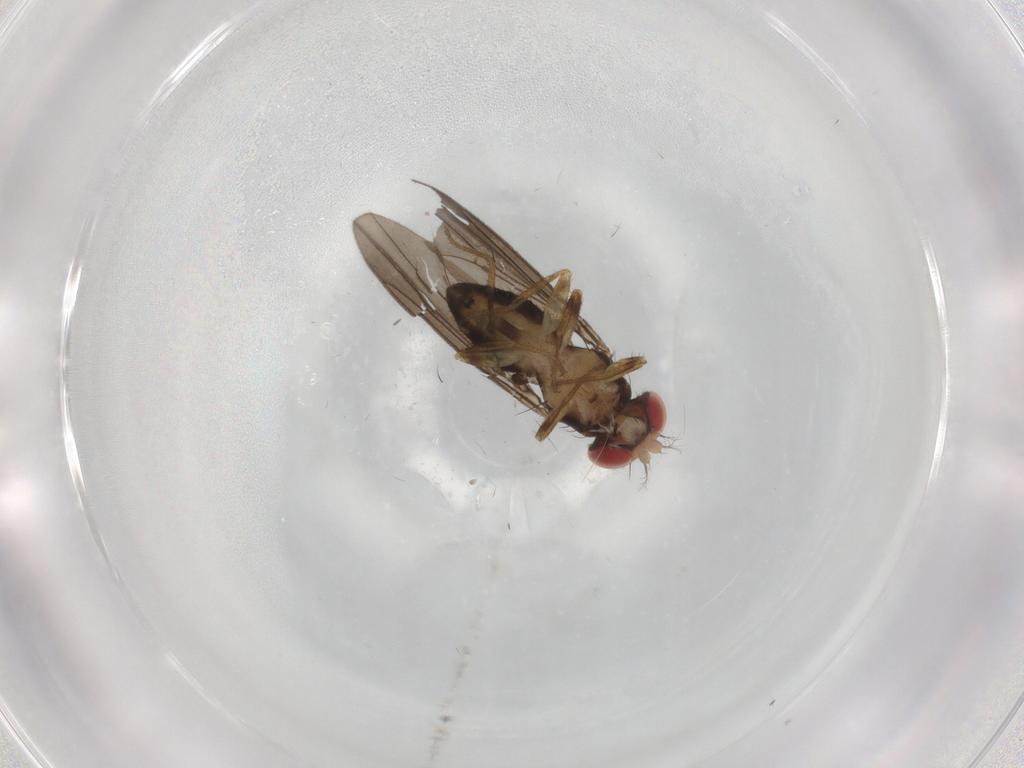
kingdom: Animalia
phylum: Arthropoda
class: Insecta
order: Diptera
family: Drosophilidae
